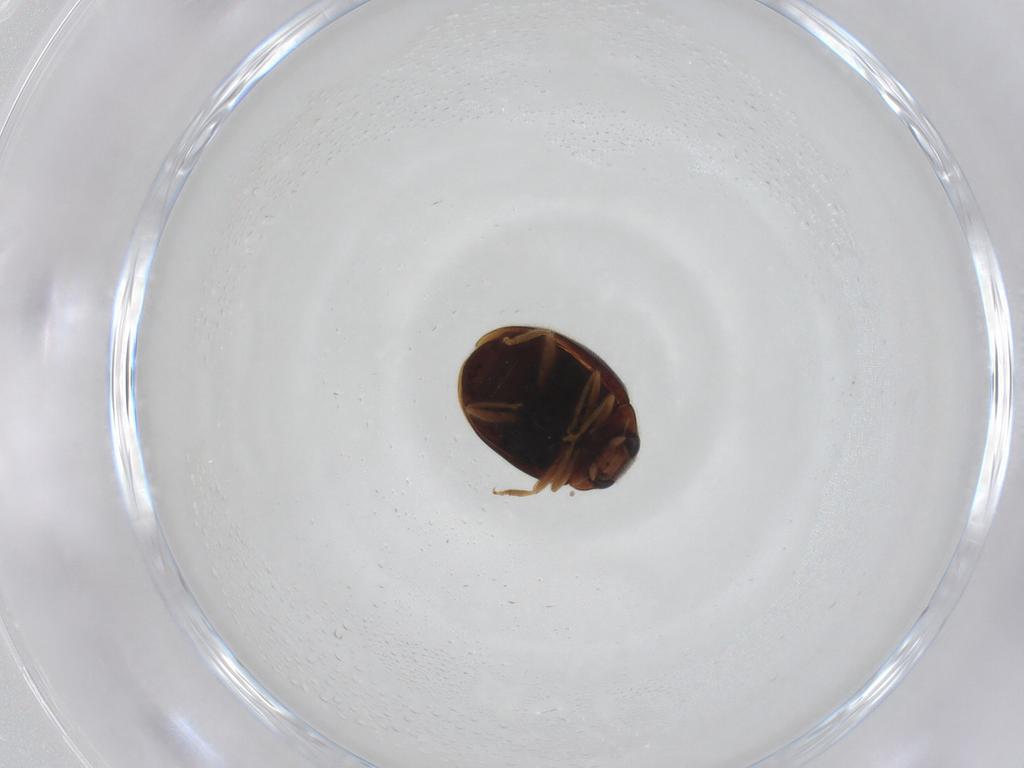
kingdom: Animalia
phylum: Arthropoda
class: Insecta
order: Coleoptera
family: Coccinellidae
